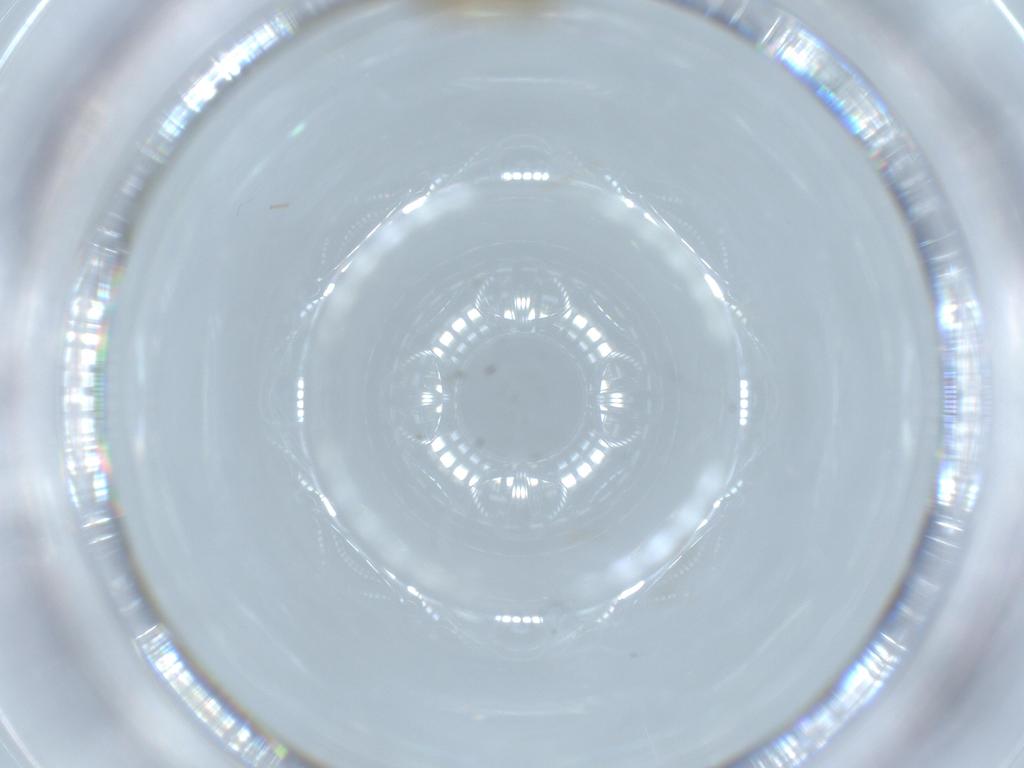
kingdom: Animalia
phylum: Arthropoda
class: Insecta
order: Diptera
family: Chironomidae
